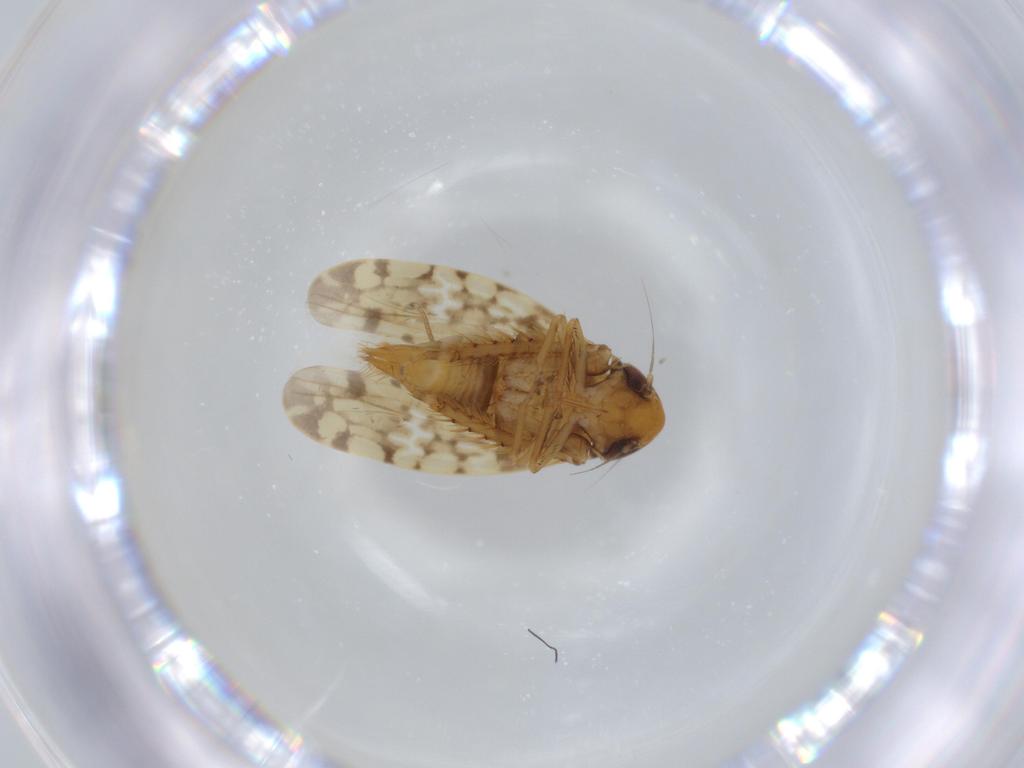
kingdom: Animalia
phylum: Arthropoda
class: Insecta
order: Hemiptera
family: Cicadellidae
